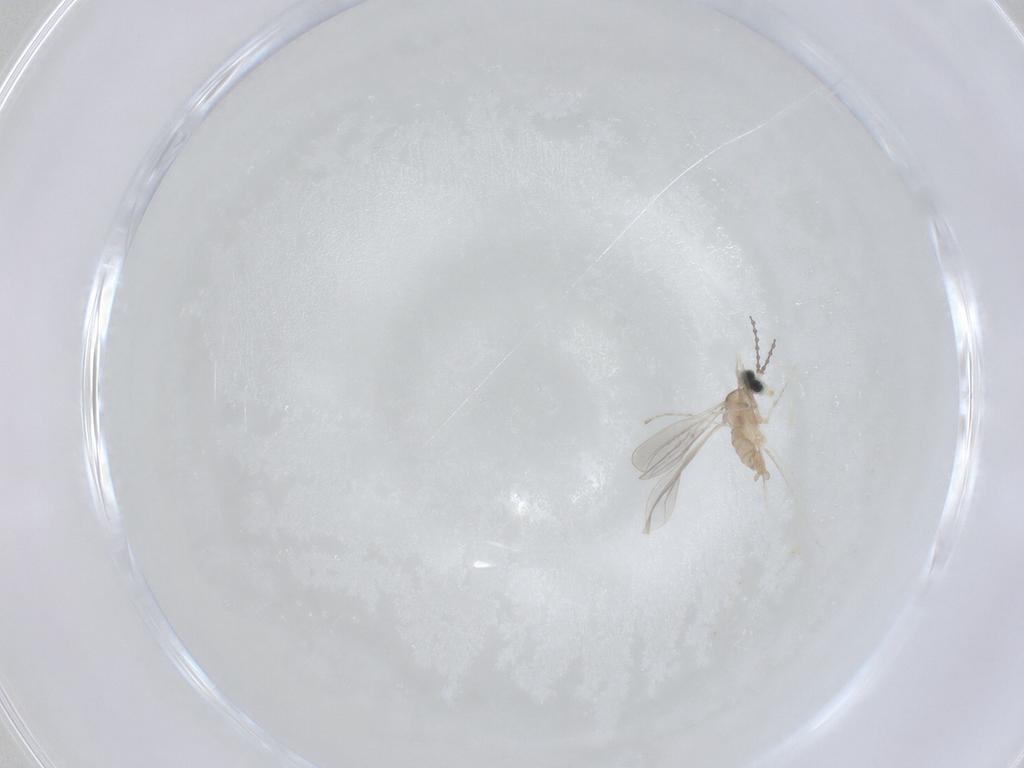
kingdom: Animalia
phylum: Arthropoda
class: Insecta
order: Diptera
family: Cecidomyiidae
